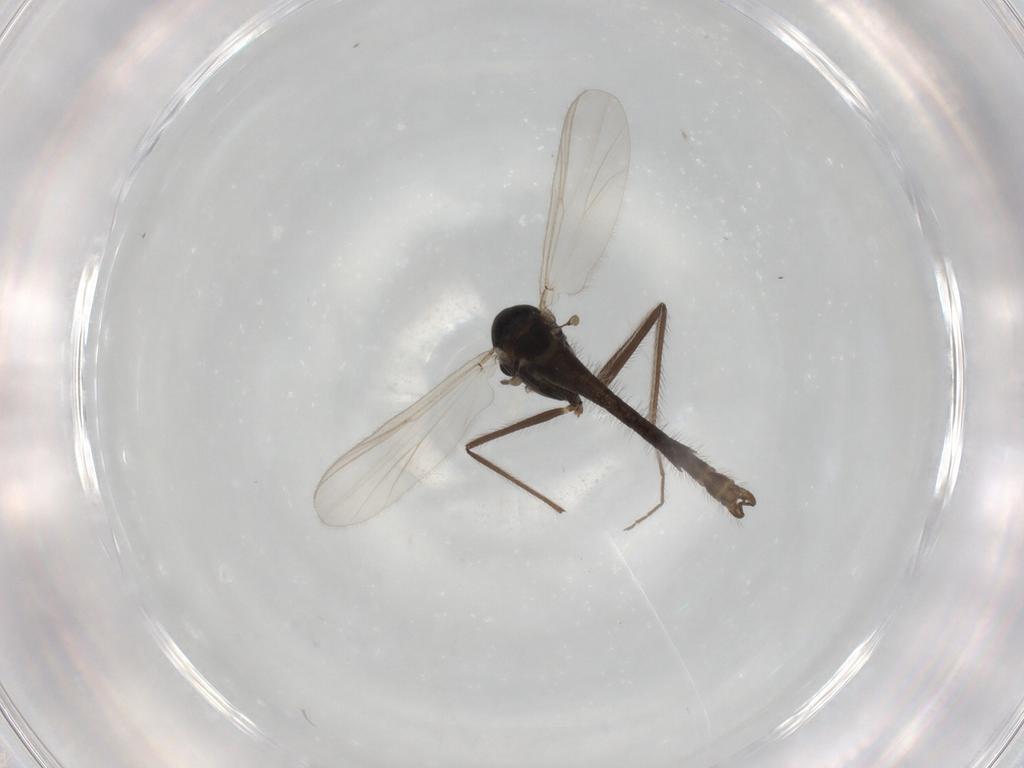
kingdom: Animalia
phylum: Arthropoda
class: Insecta
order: Diptera
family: Chironomidae
